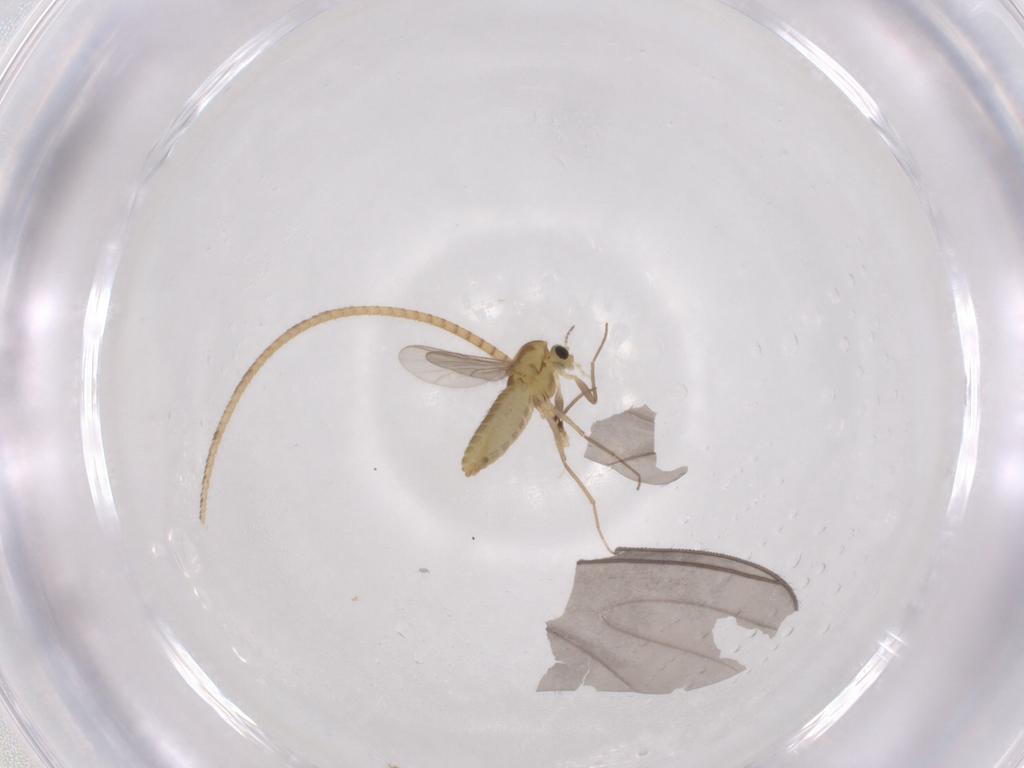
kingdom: Animalia
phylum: Arthropoda
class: Insecta
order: Lepidoptera
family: Geometridae
